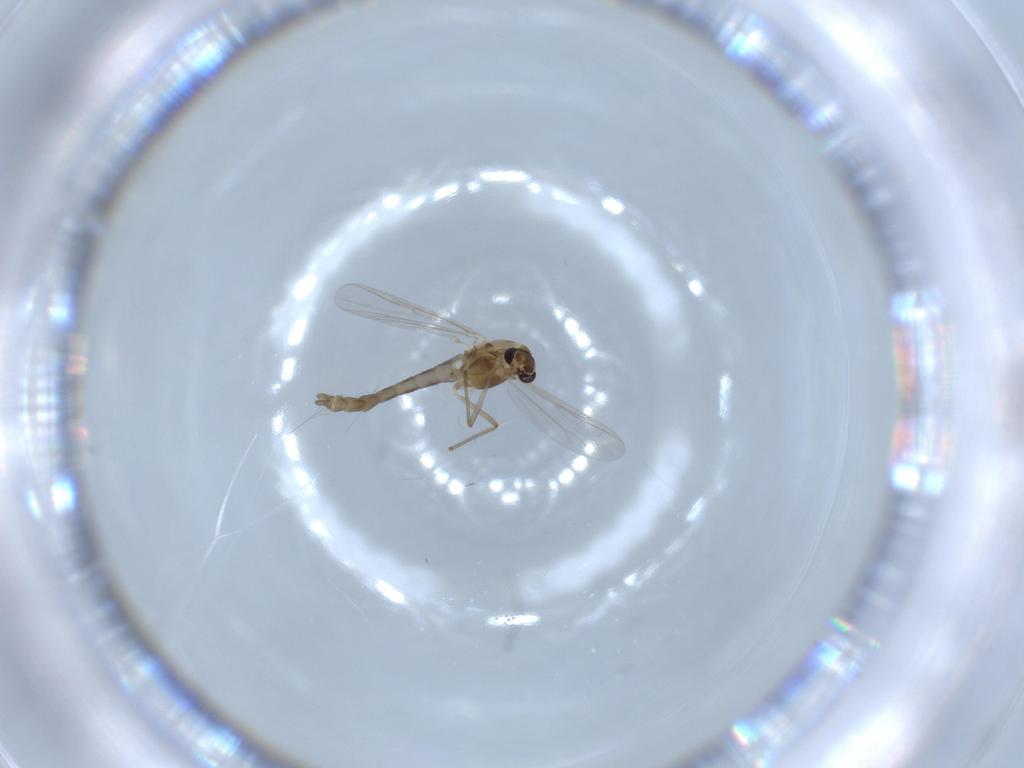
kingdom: Animalia
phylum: Arthropoda
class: Insecta
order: Diptera
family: Chironomidae
